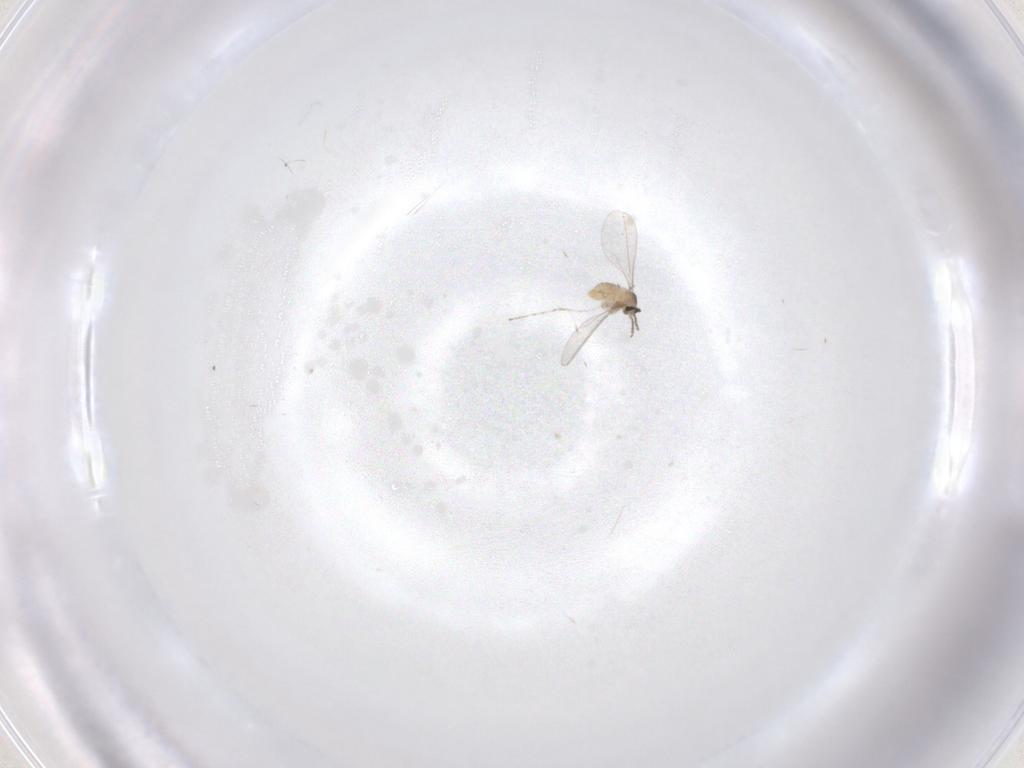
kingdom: Animalia
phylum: Arthropoda
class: Insecta
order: Diptera
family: Cecidomyiidae
